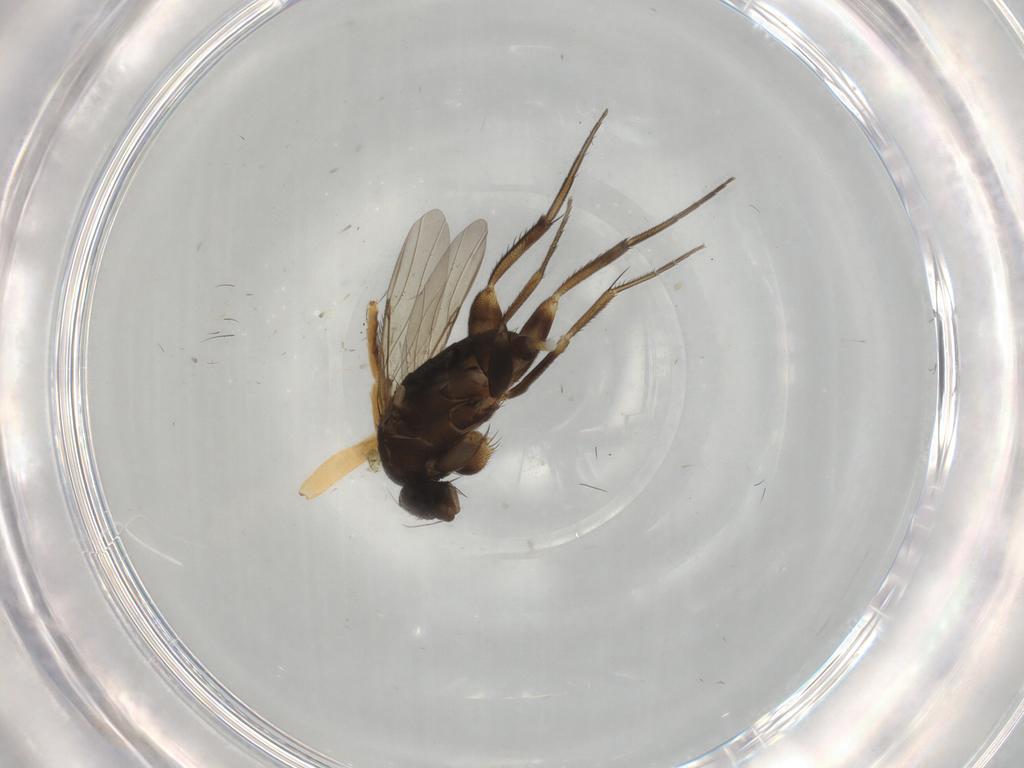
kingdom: Animalia
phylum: Arthropoda
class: Insecta
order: Diptera
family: Phoridae
